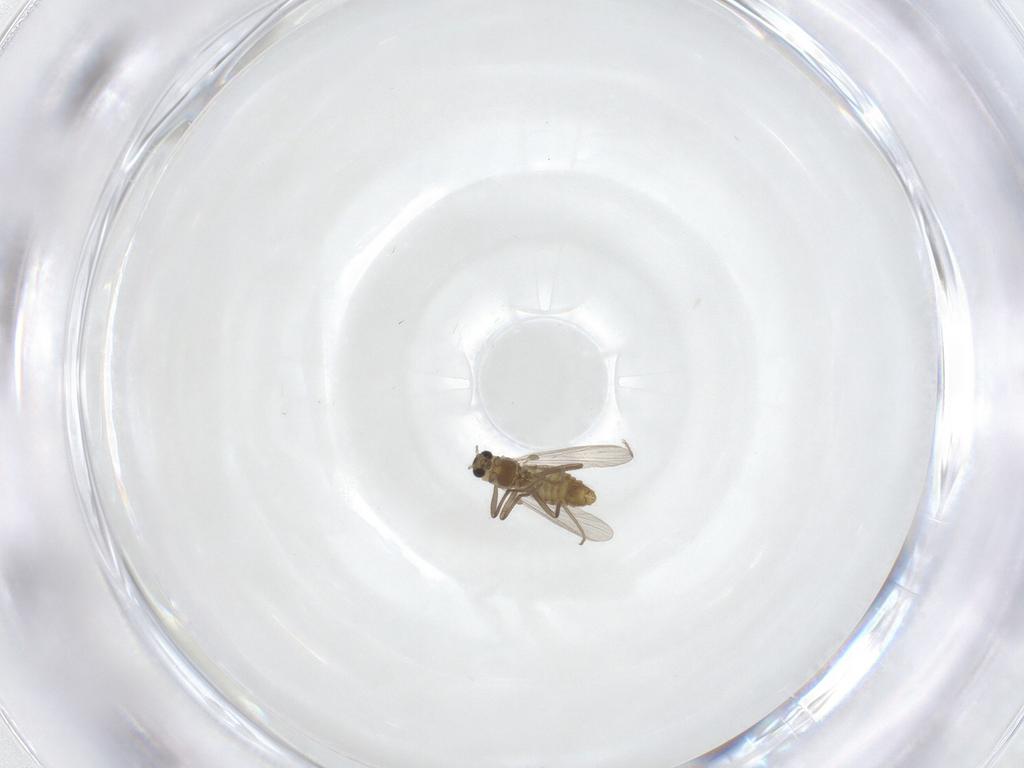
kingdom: Animalia
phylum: Arthropoda
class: Insecta
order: Diptera
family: Chironomidae
